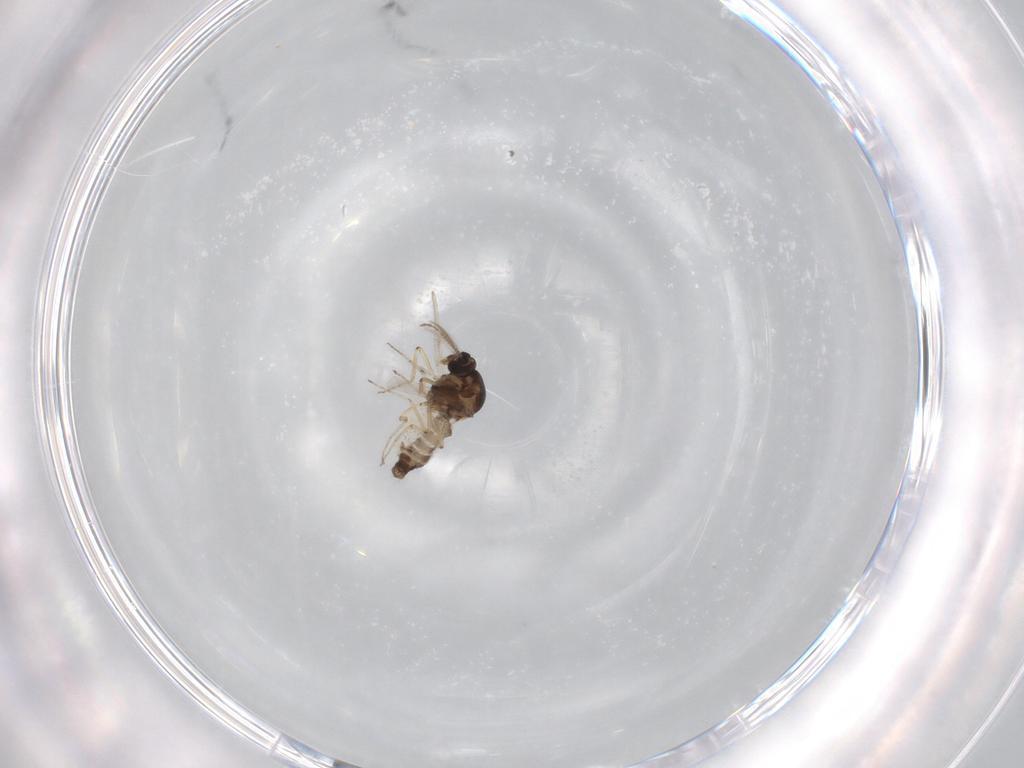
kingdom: Animalia
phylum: Arthropoda
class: Insecta
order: Diptera
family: Ceratopogonidae
